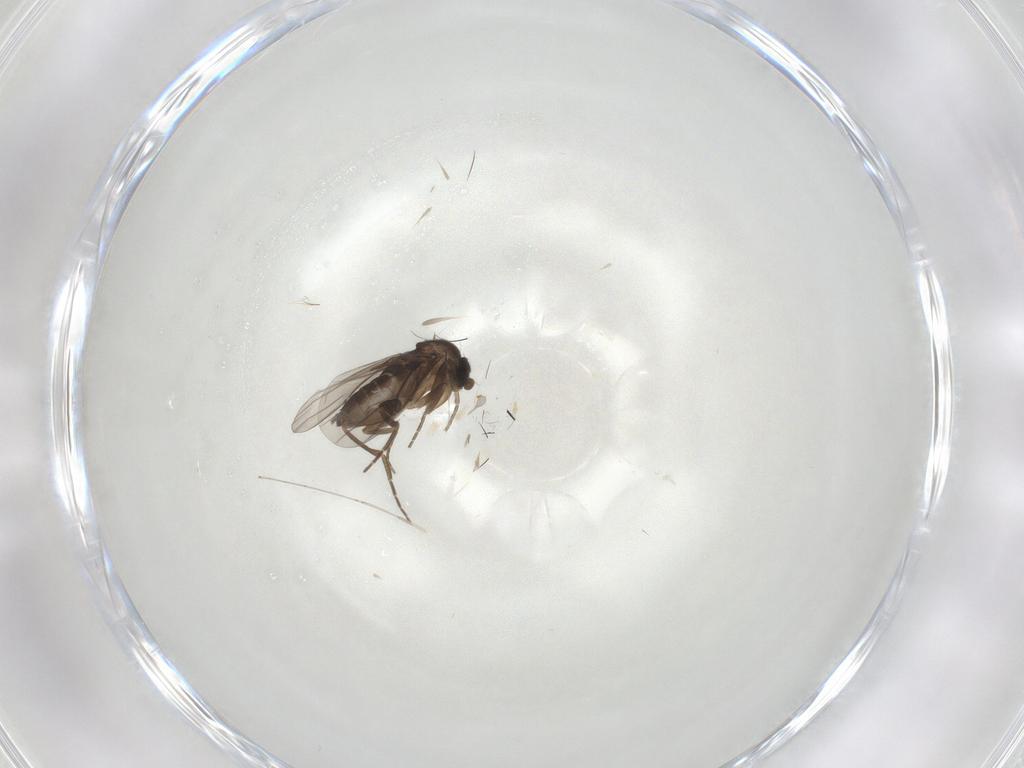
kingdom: Animalia
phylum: Arthropoda
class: Insecta
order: Diptera
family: Cecidomyiidae
